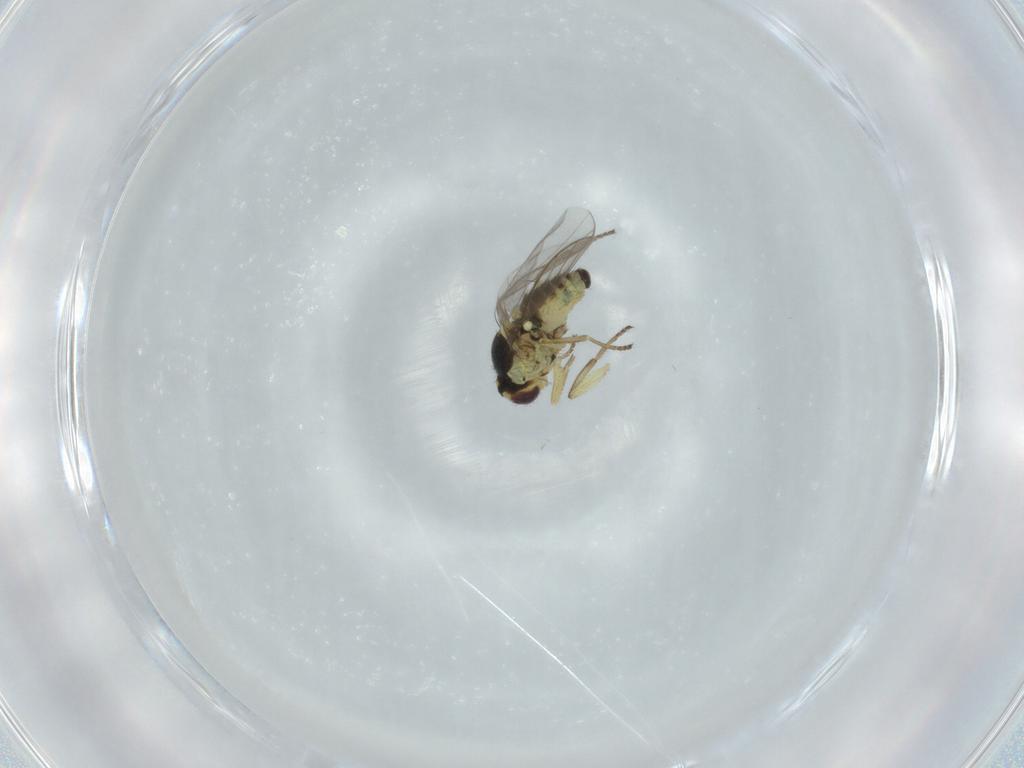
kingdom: Animalia
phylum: Arthropoda
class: Insecta
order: Diptera
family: Agromyzidae
